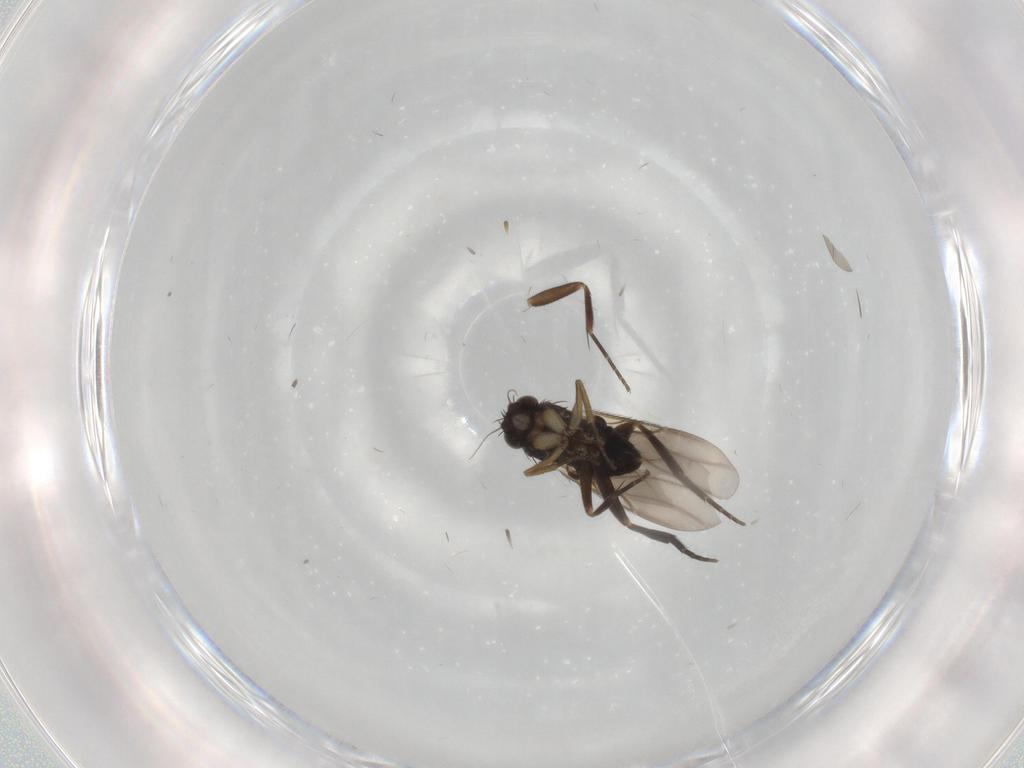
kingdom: Animalia
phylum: Arthropoda
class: Insecta
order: Diptera
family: Phoridae
